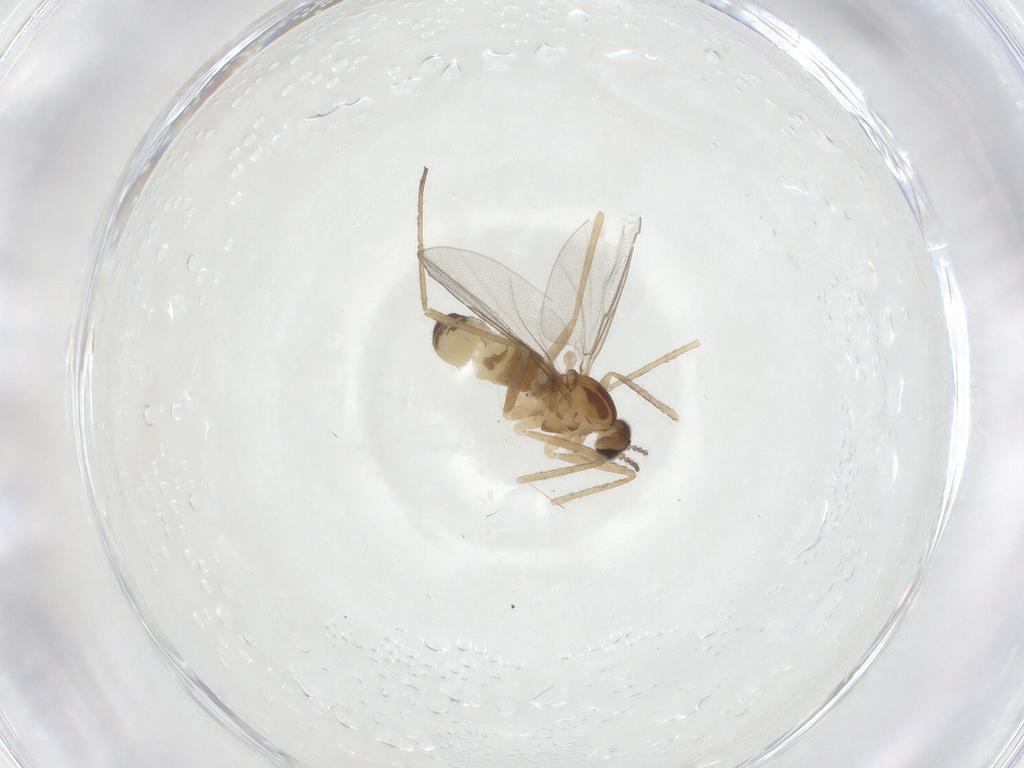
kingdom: Animalia
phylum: Arthropoda
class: Insecta
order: Diptera
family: Cecidomyiidae
